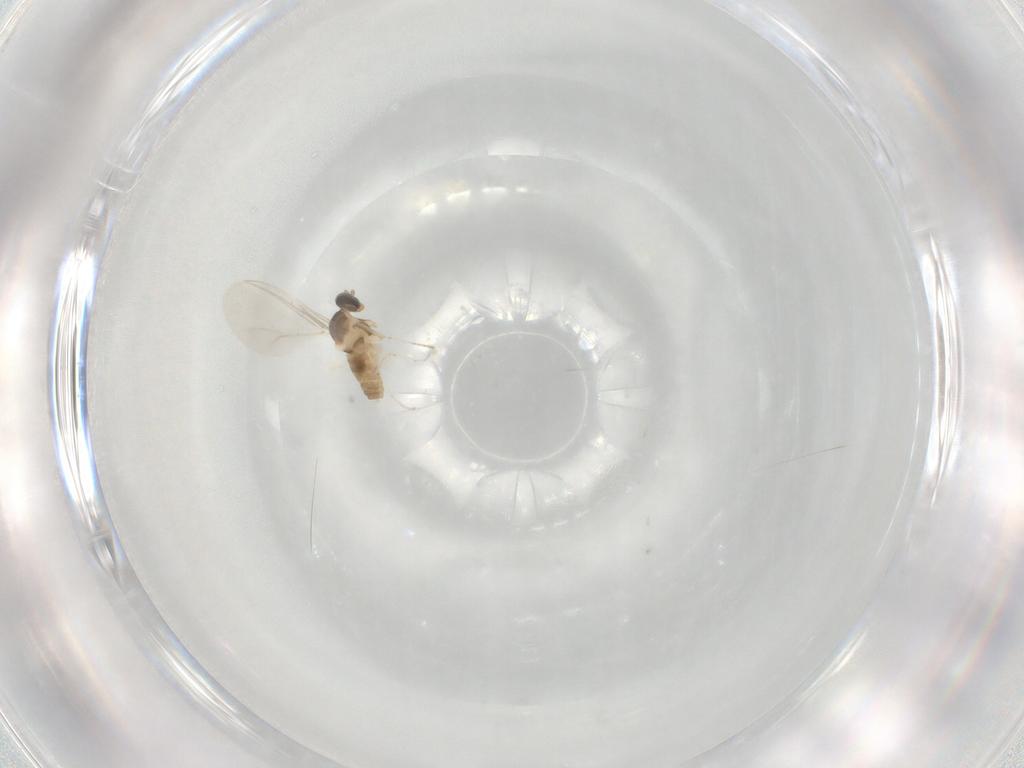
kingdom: Animalia
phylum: Arthropoda
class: Insecta
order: Diptera
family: Cecidomyiidae
